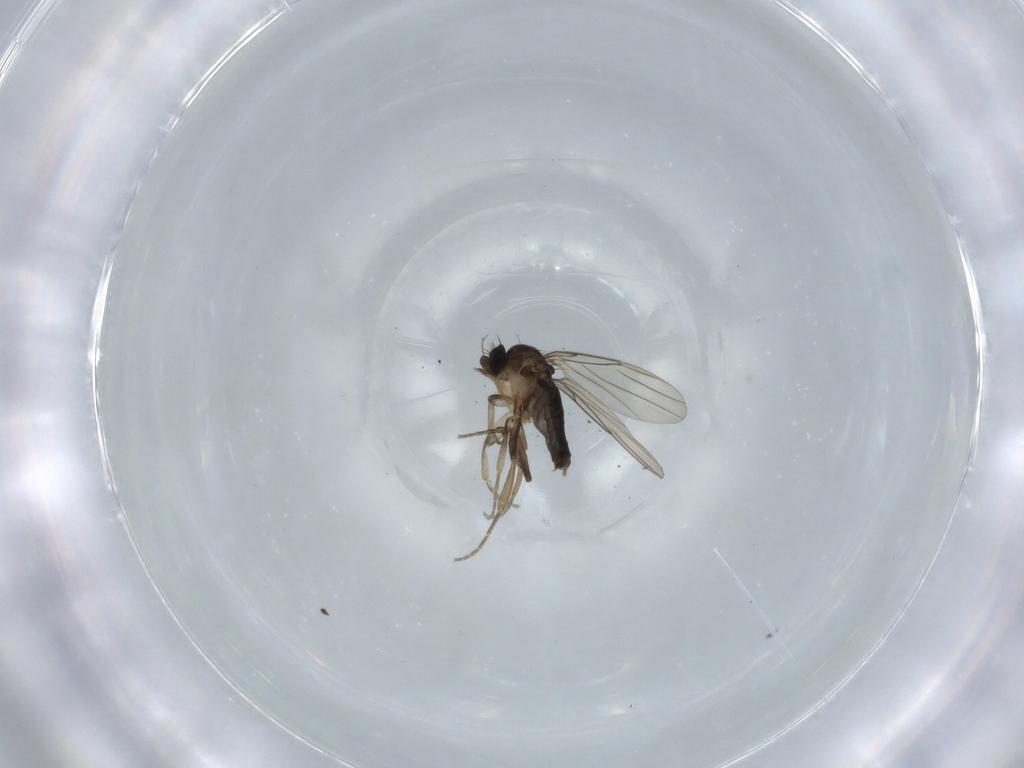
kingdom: Animalia
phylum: Arthropoda
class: Insecta
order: Diptera
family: Phoridae
